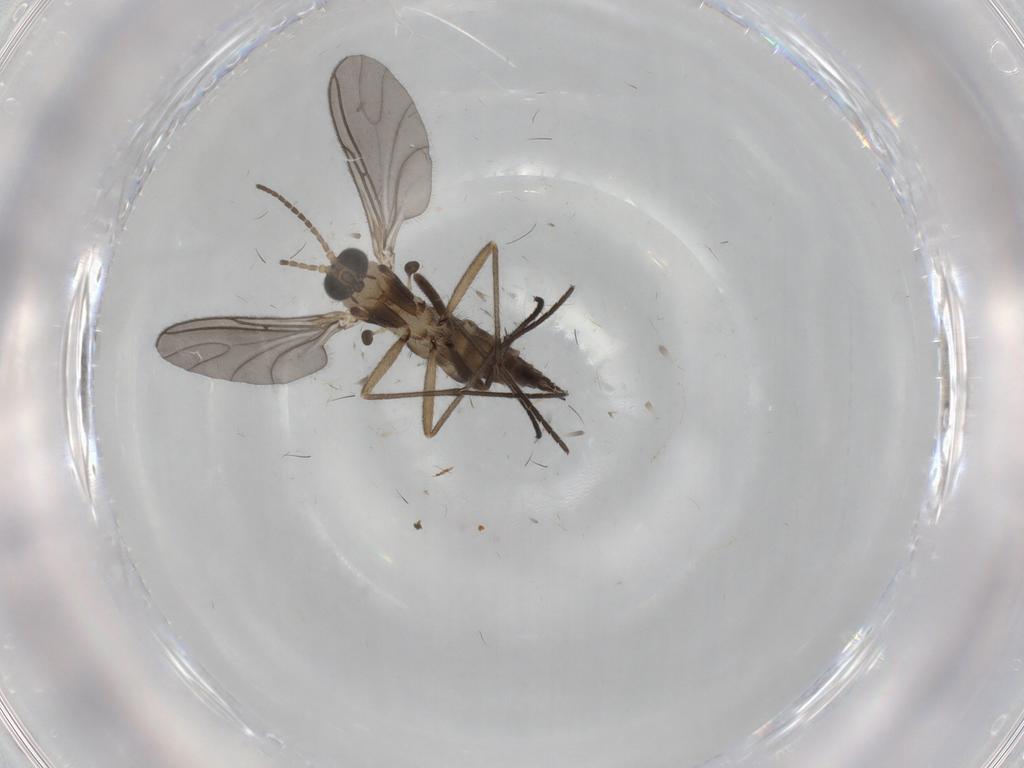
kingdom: Animalia
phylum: Arthropoda
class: Insecta
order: Diptera
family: Sciaridae
